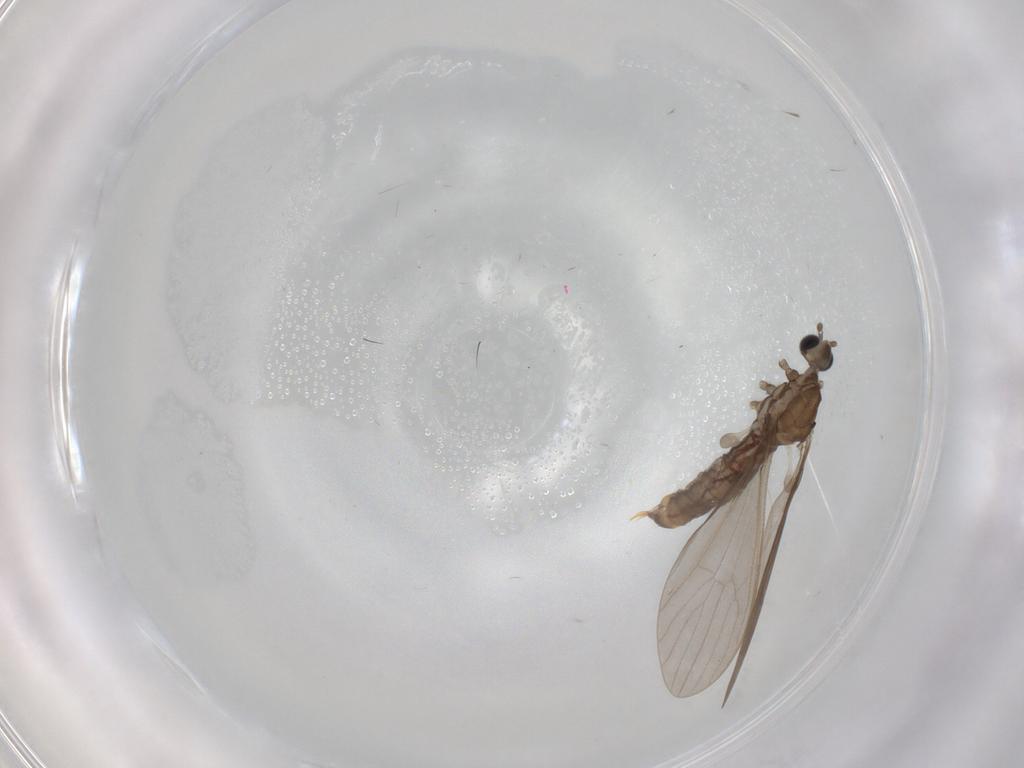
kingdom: Animalia
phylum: Arthropoda
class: Insecta
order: Diptera
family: Limoniidae
